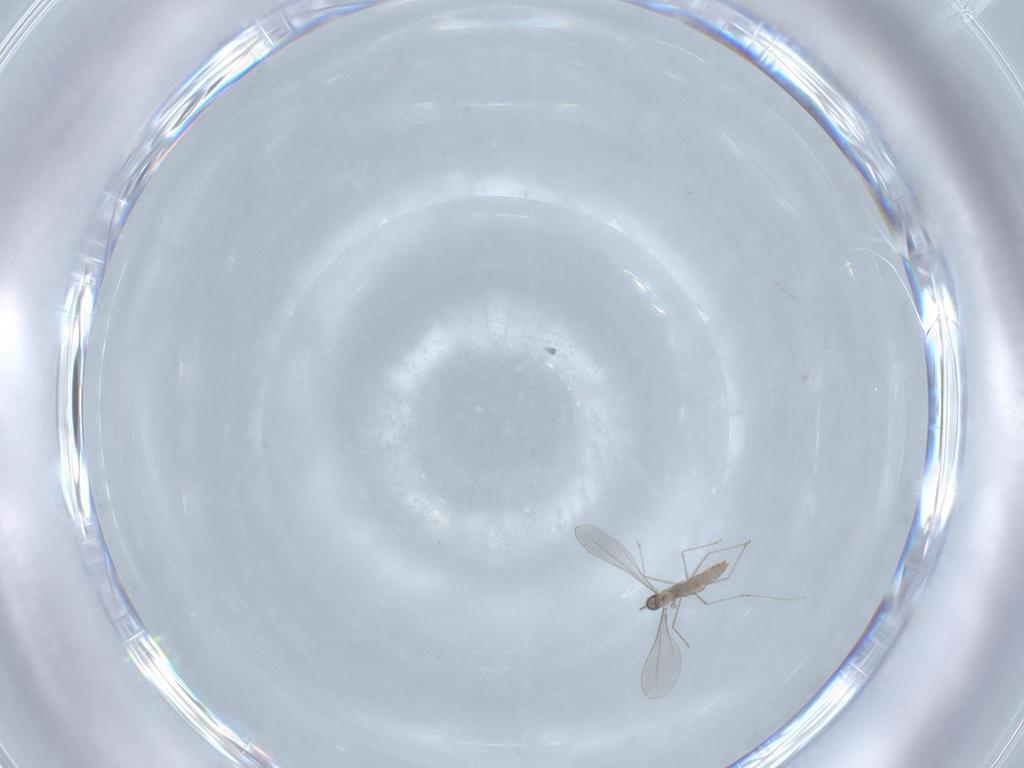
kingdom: Animalia
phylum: Arthropoda
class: Insecta
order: Diptera
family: Cecidomyiidae
